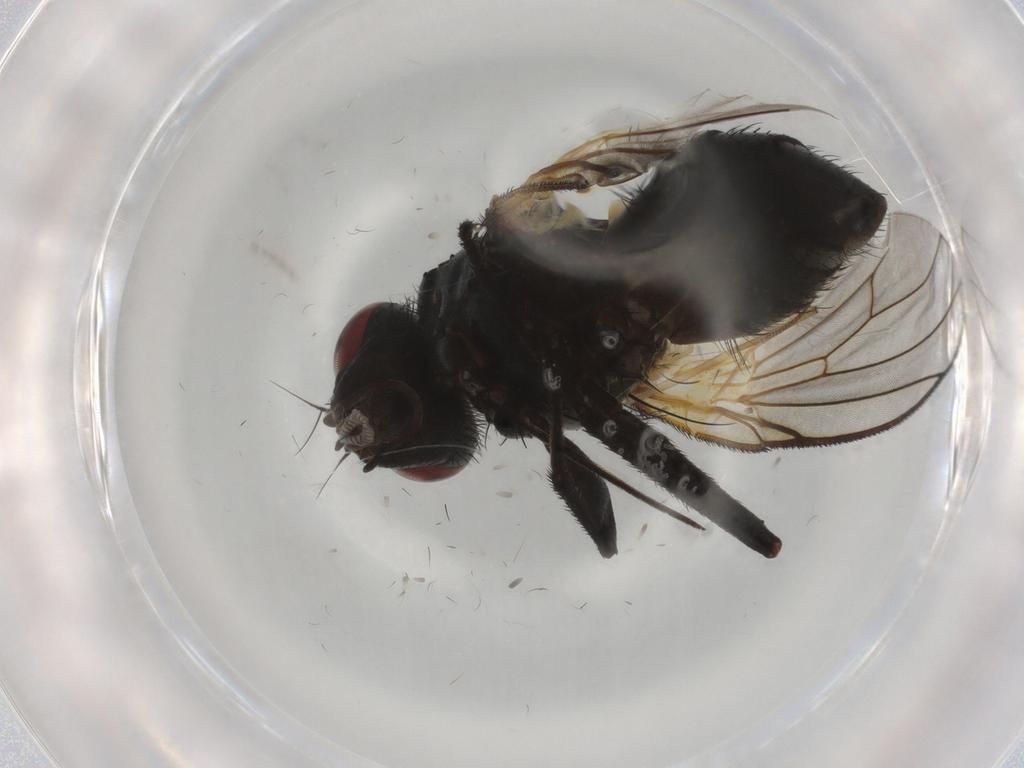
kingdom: Animalia
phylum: Arthropoda
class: Insecta
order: Diptera
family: Muscidae
